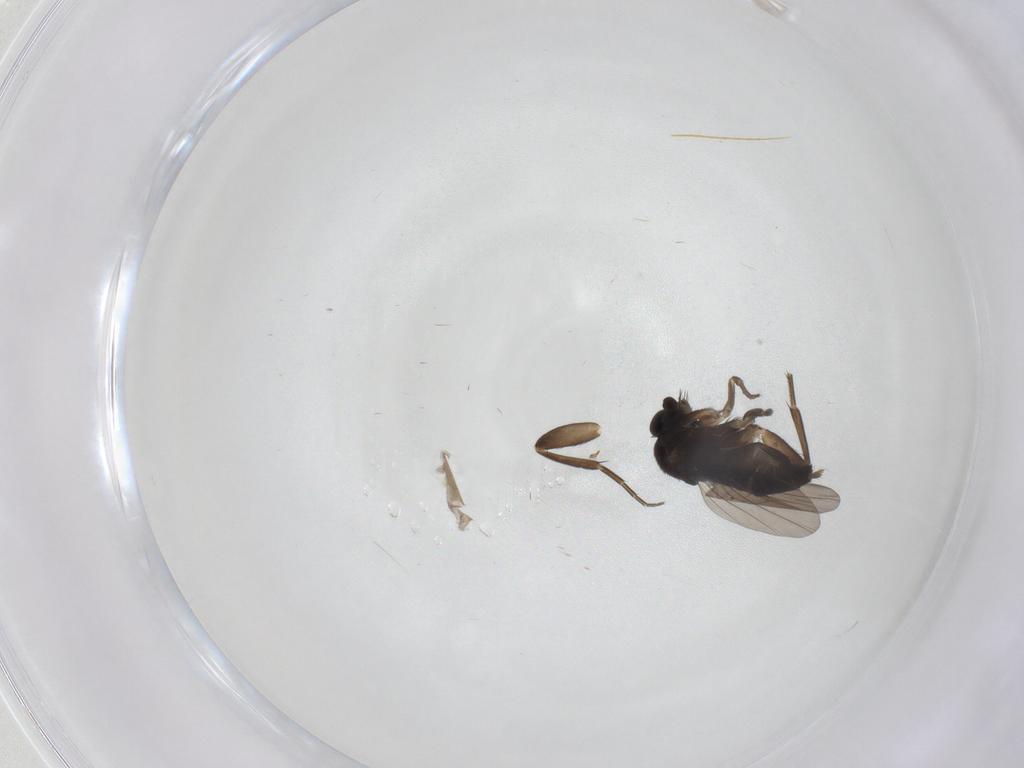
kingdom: Animalia
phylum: Arthropoda
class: Insecta
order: Diptera
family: Phoridae
